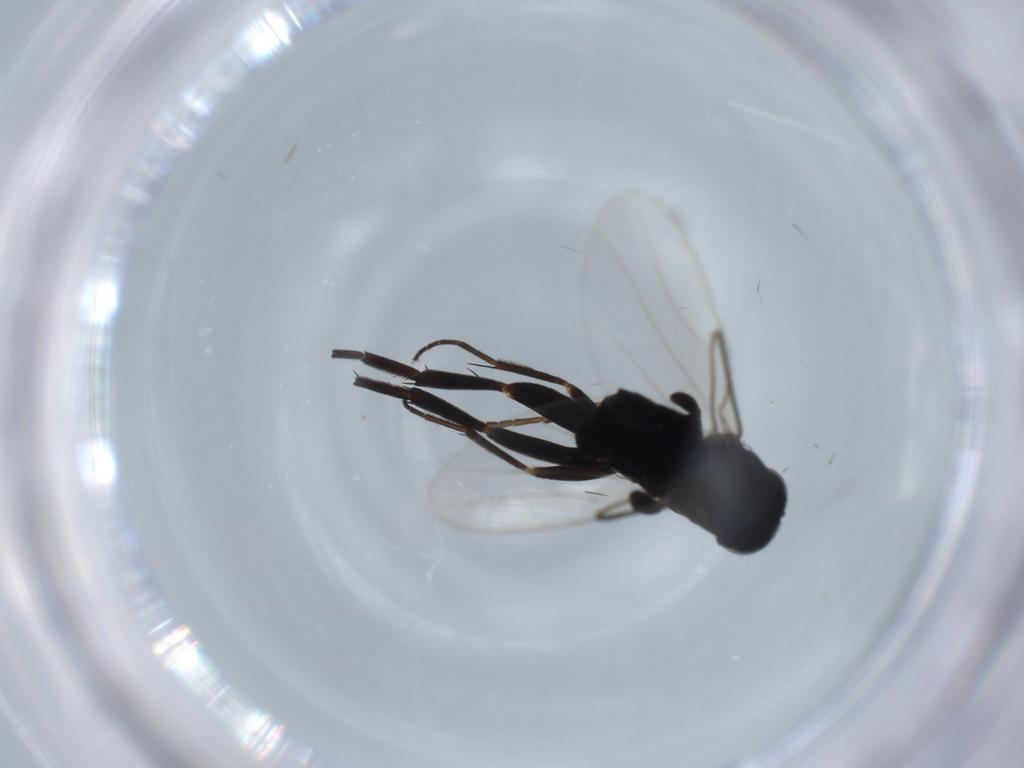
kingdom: Animalia
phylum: Arthropoda
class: Insecta
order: Diptera
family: Phoridae
